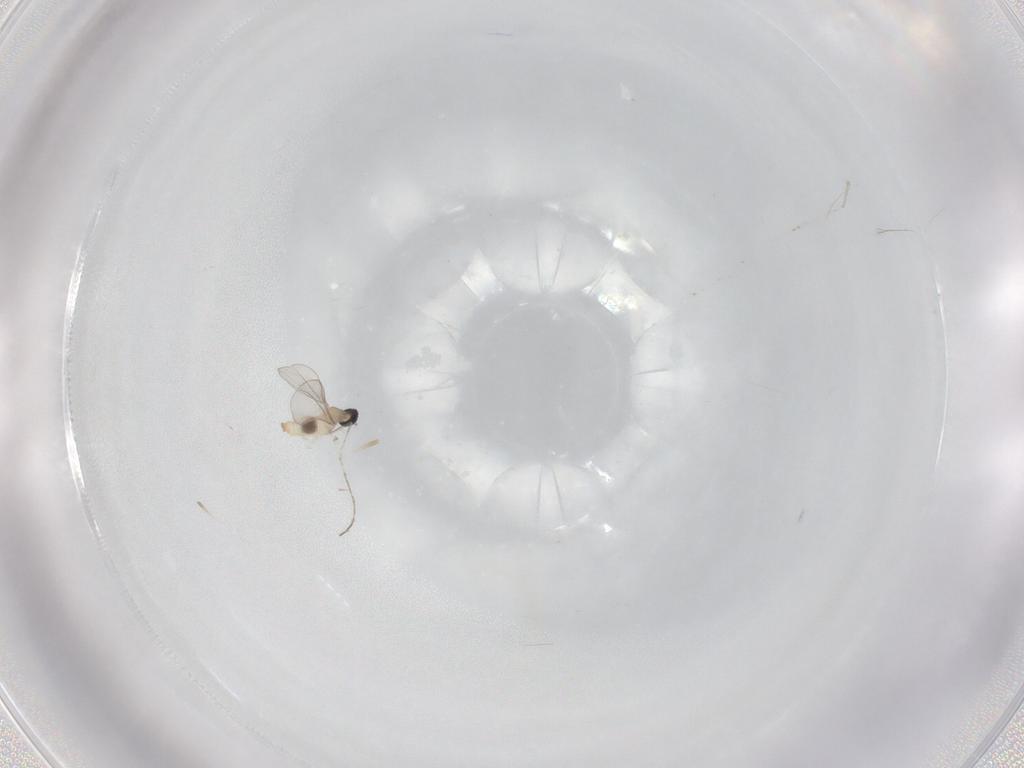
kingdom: Animalia
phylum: Arthropoda
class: Insecta
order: Diptera
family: Cecidomyiidae
